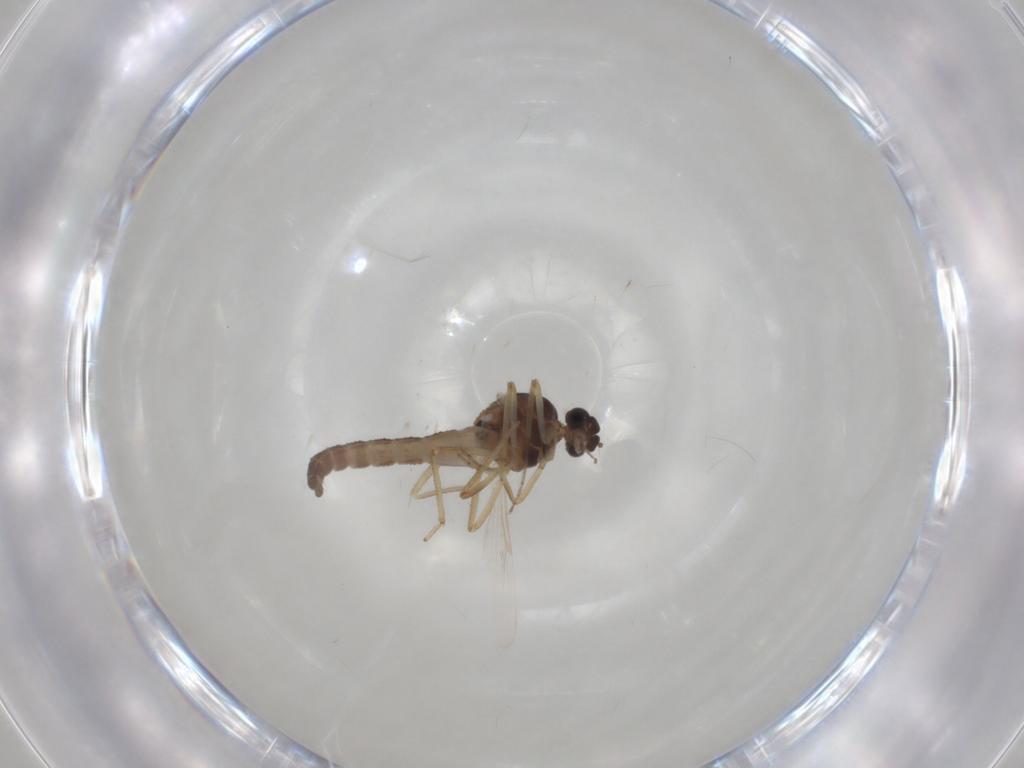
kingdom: Animalia
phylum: Arthropoda
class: Insecta
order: Diptera
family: Ceratopogonidae
